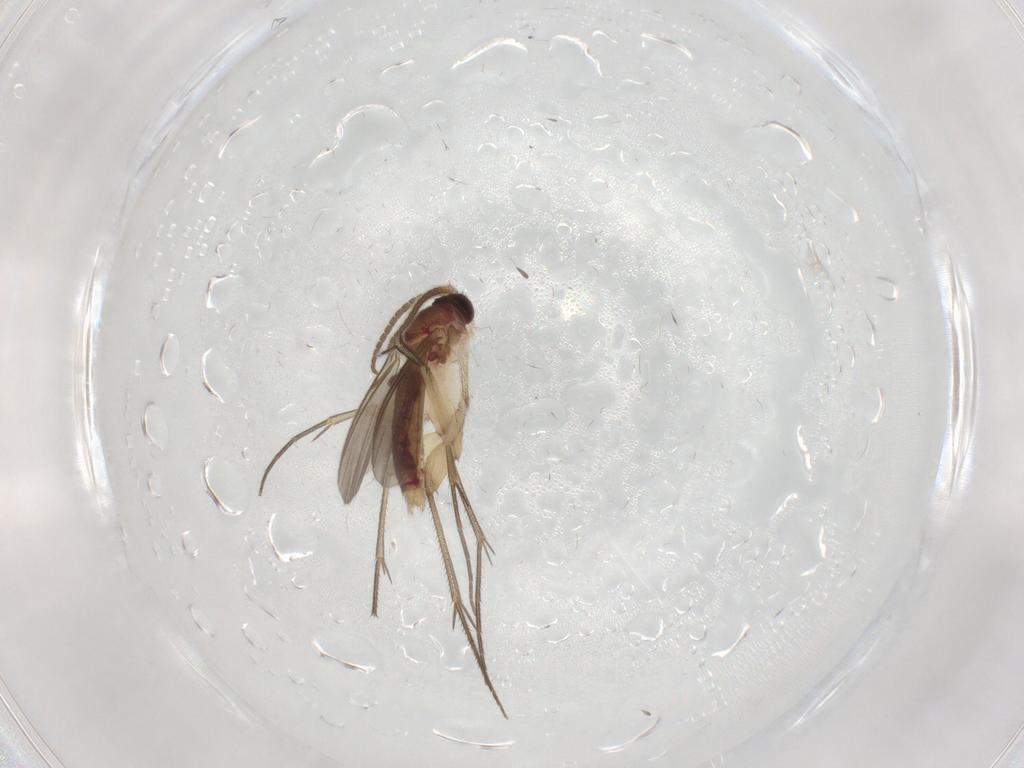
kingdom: Animalia
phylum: Arthropoda
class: Insecta
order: Diptera
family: Mycetophilidae
